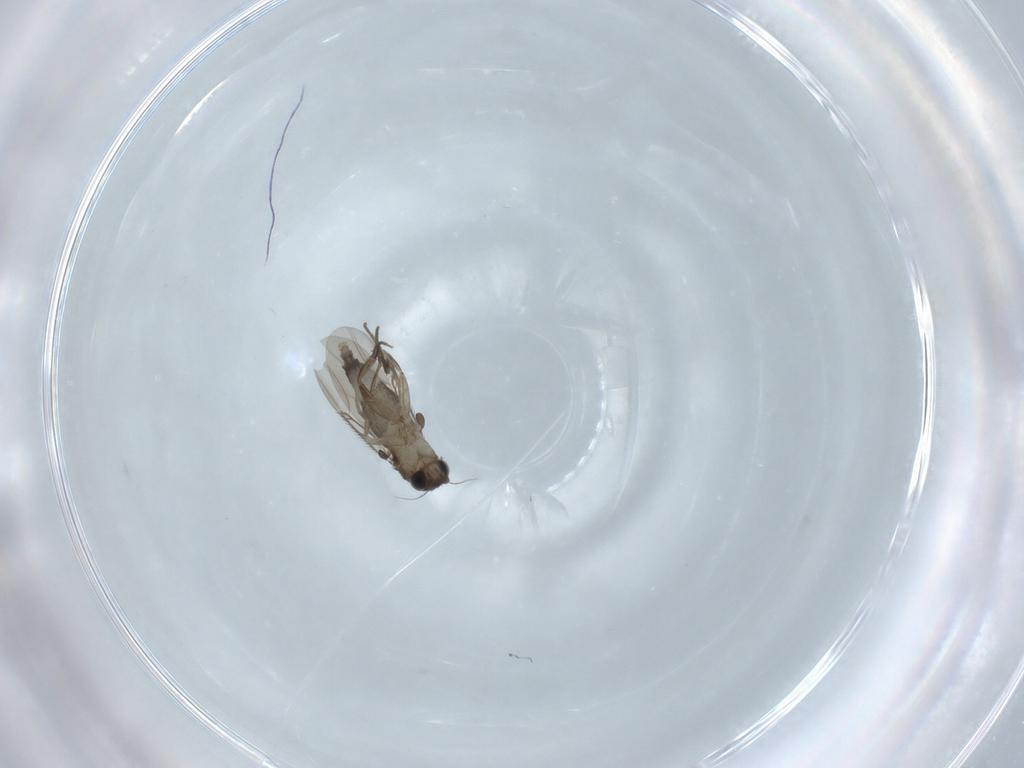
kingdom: Animalia
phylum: Arthropoda
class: Insecta
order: Diptera
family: Phoridae
